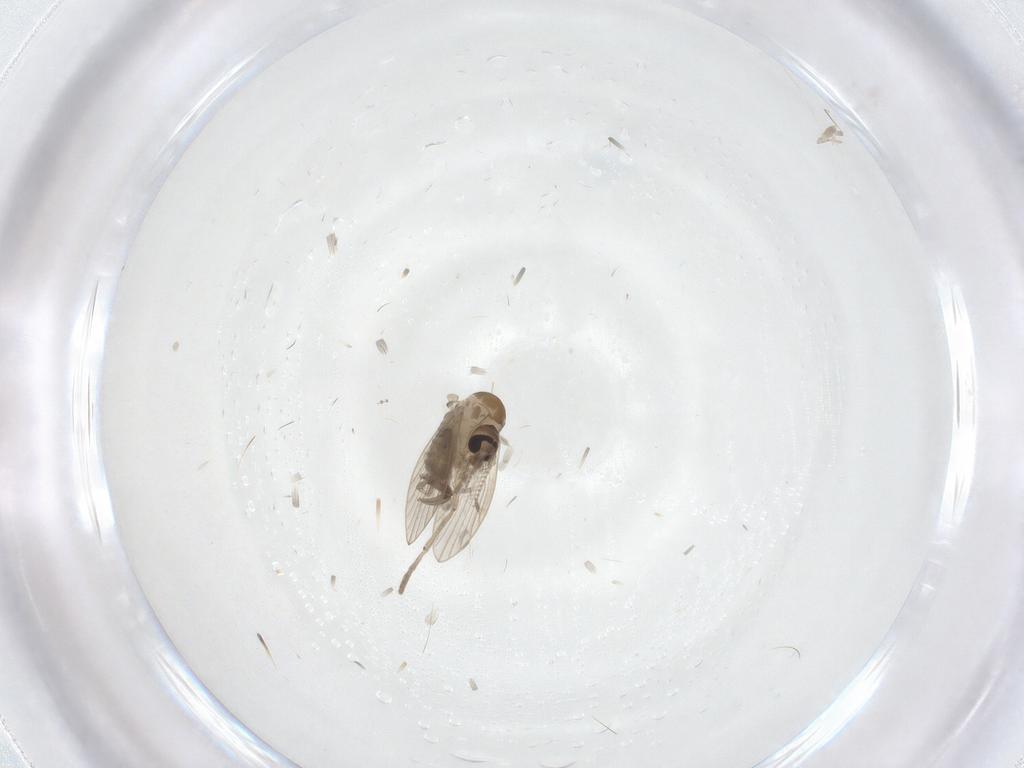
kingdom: Animalia
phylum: Arthropoda
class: Insecta
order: Diptera
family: Psychodidae
